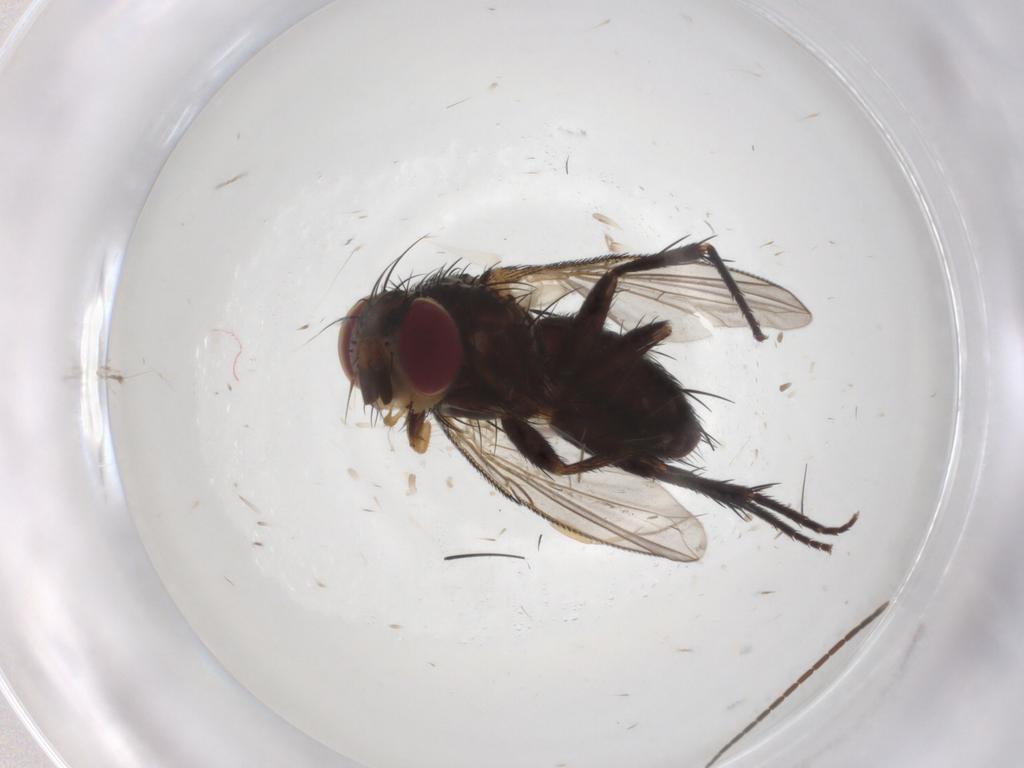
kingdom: Animalia
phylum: Arthropoda
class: Insecta
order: Diptera
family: Tachinidae
